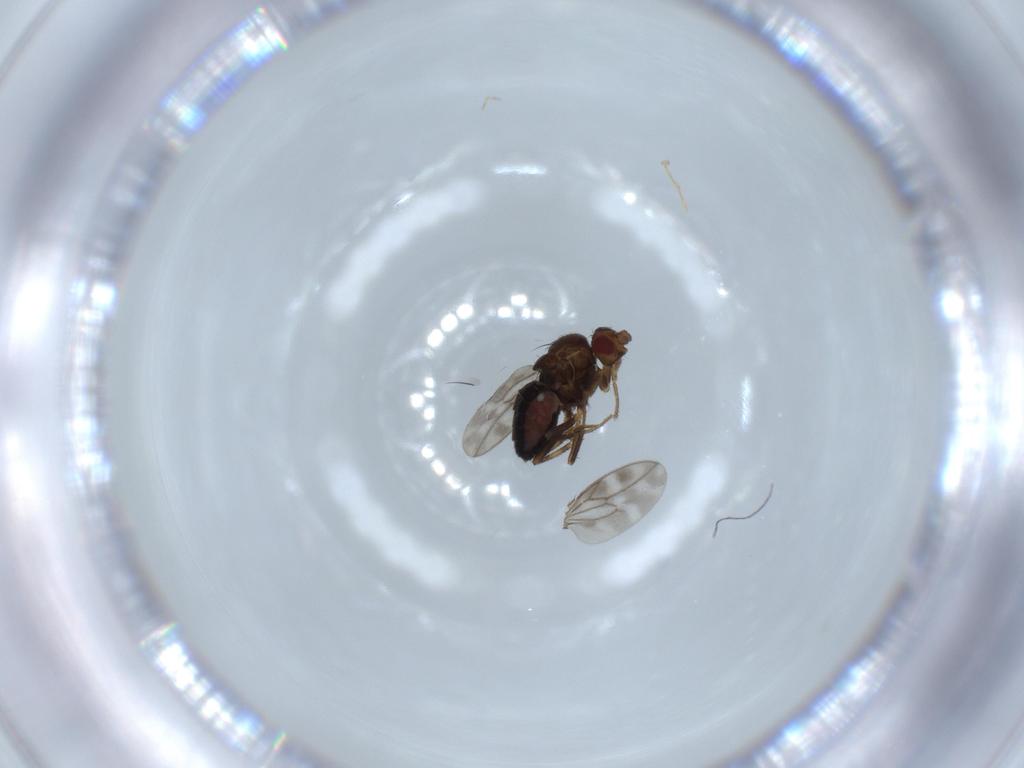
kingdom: Animalia
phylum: Arthropoda
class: Insecta
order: Diptera
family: Sphaeroceridae
